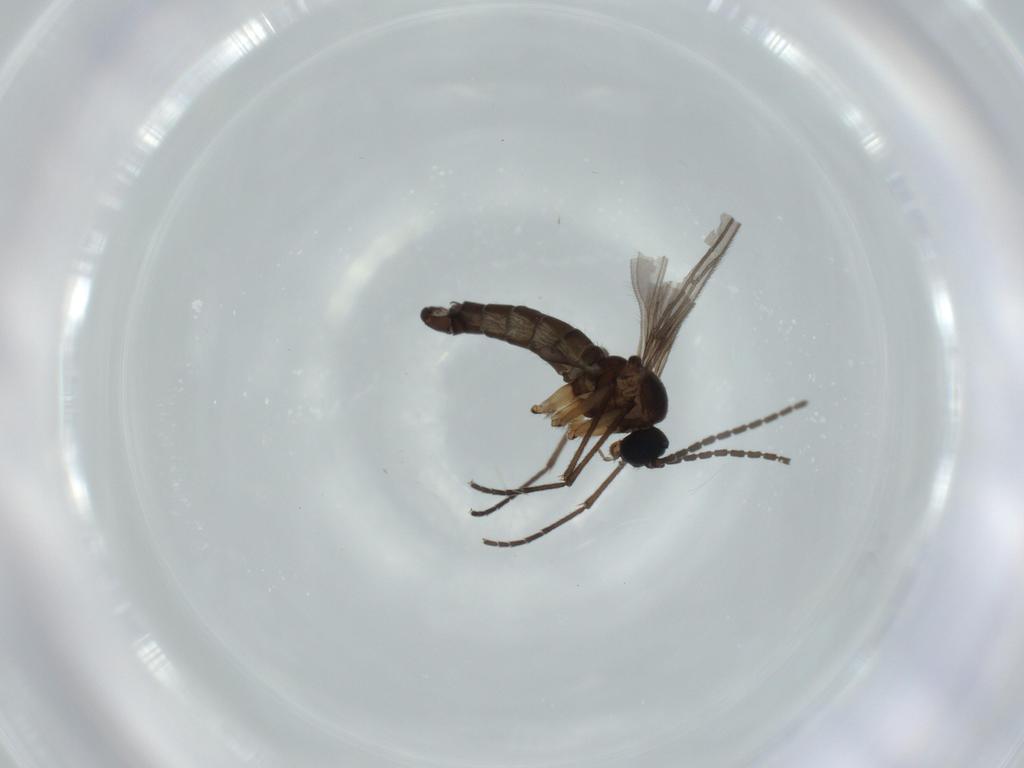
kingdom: Animalia
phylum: Arthropoda
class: Insecta
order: Diptera
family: Sciaridae
